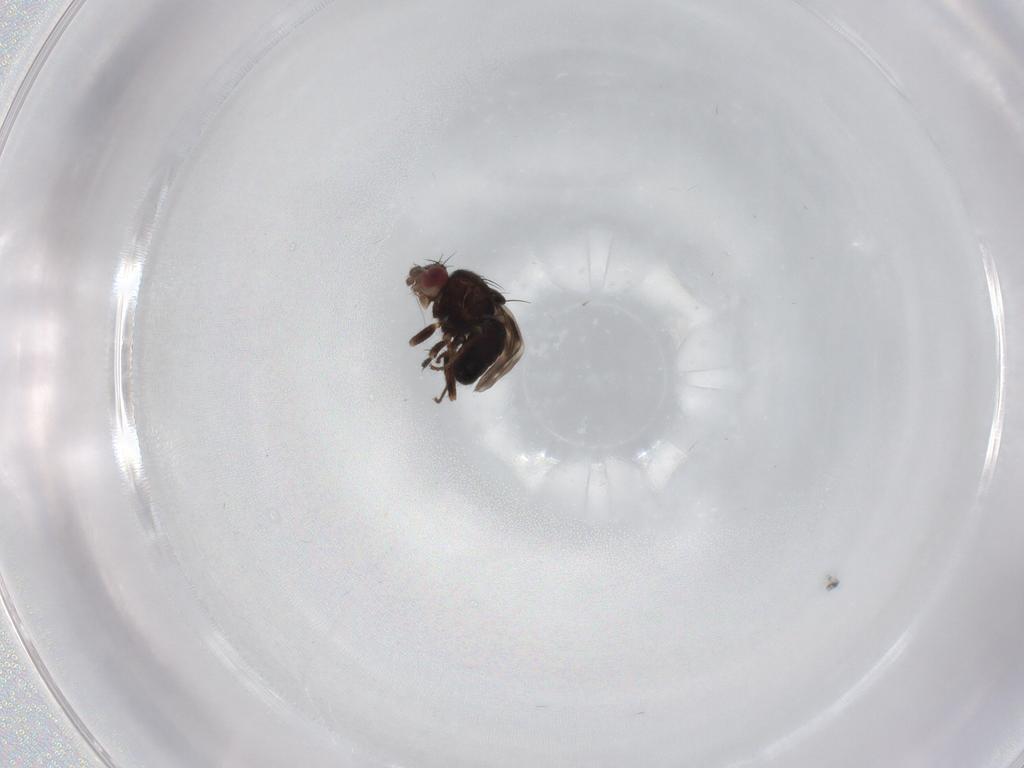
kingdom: Animalia
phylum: Arthropoda
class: Insecta
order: Diptera
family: Sphaeroceridae
